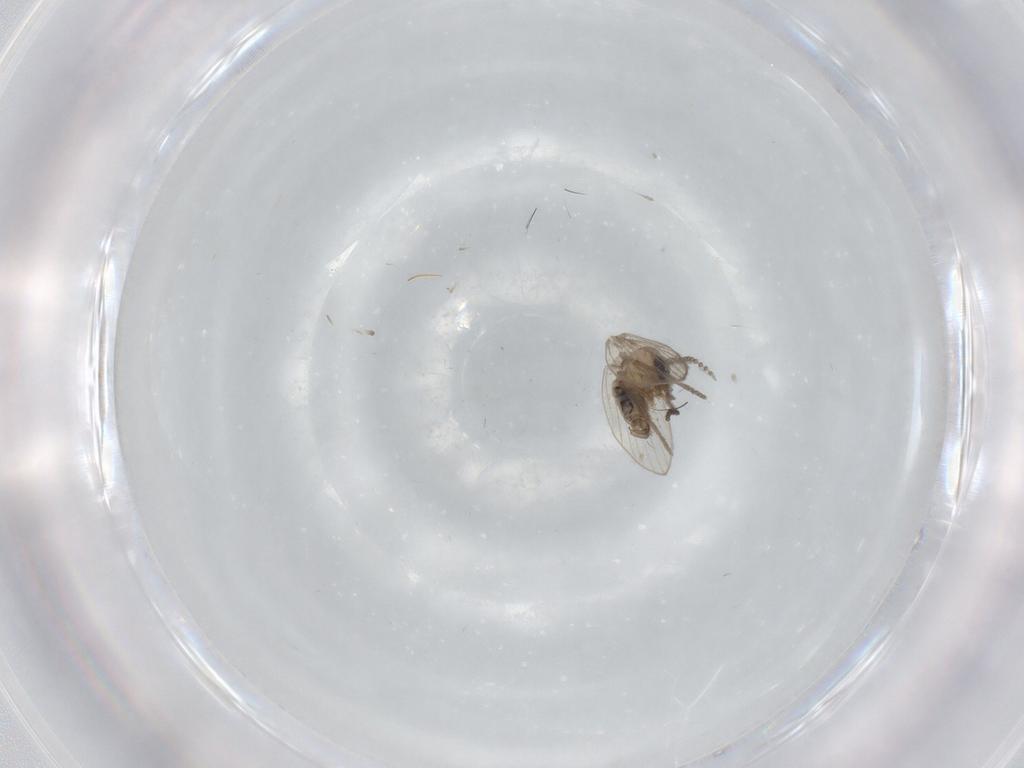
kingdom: Animalia
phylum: Arthropoda
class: Insecta
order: Diptera
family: Psychodidae
